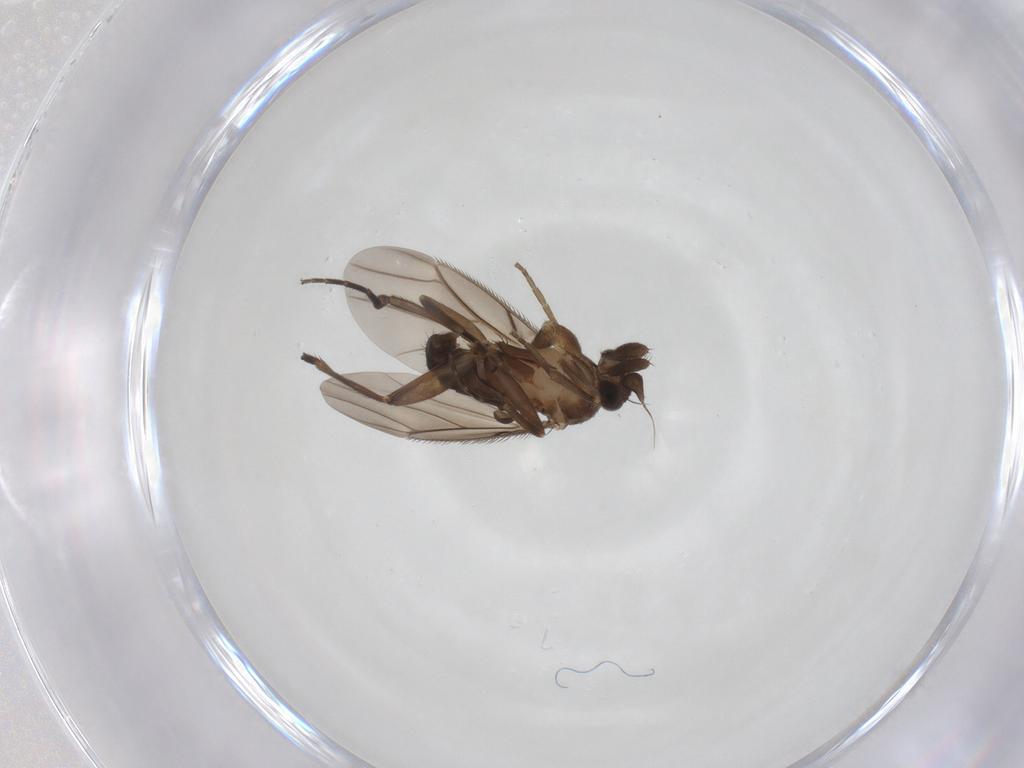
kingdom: Animalia
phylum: Arthropoda
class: Insecta
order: Diptera
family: Phoridae
